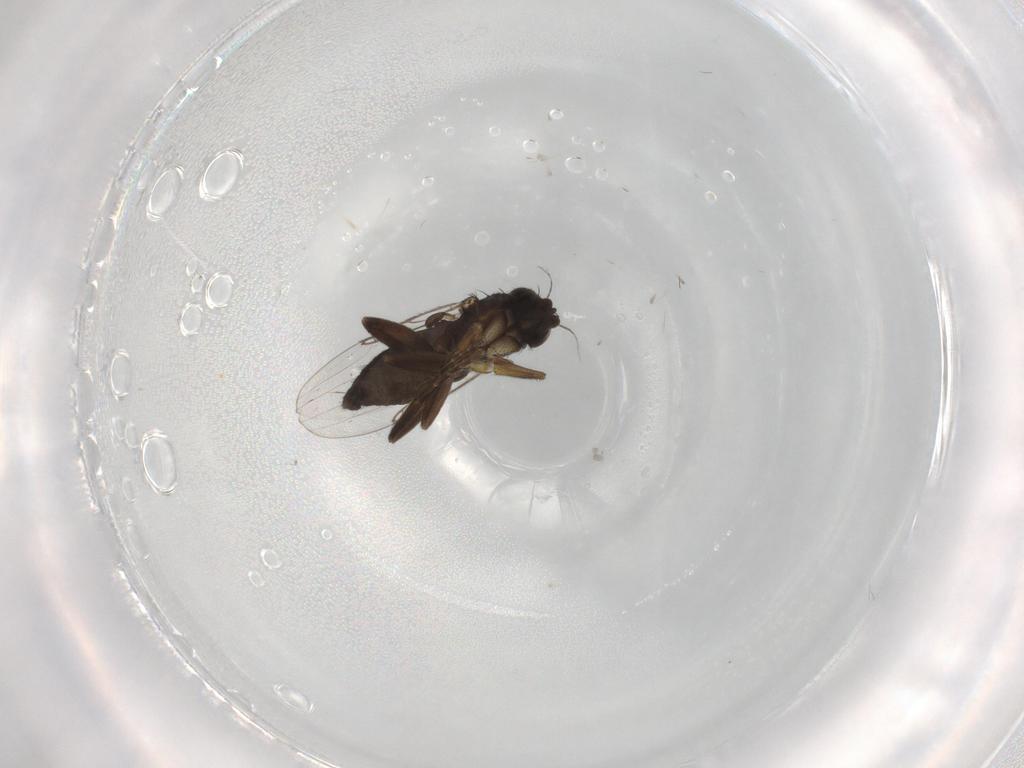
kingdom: Animalia
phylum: Arthropoda
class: Insecta
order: Diptera
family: Phoridae
